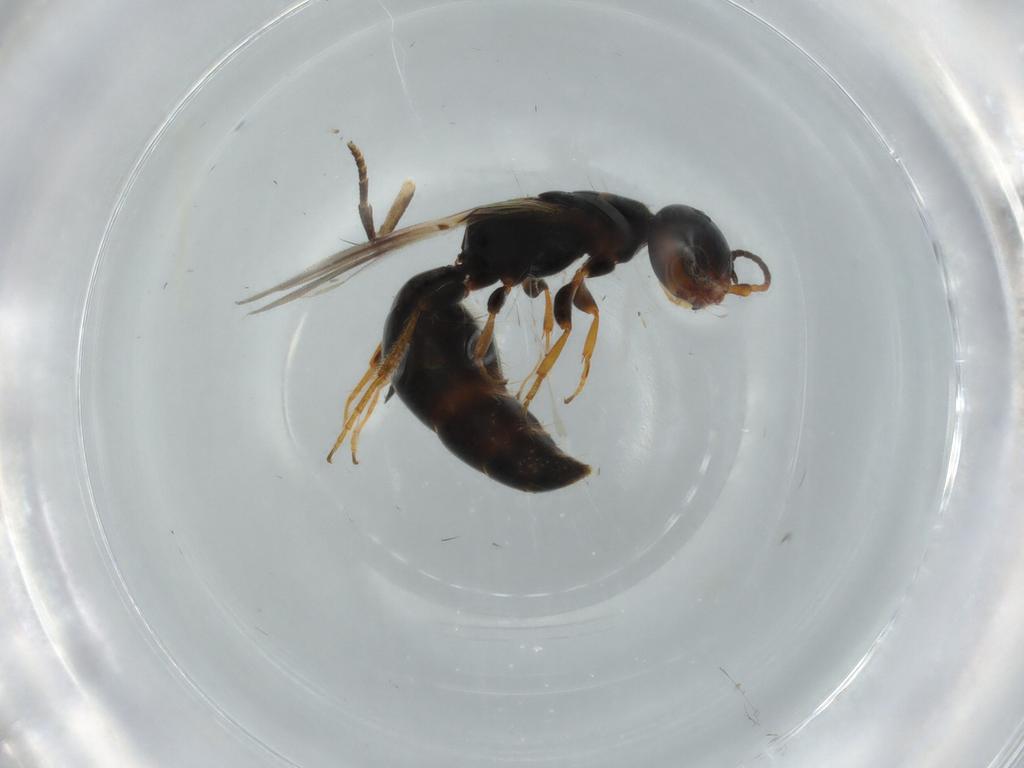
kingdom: Animalia
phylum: Arthropoda
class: Insecta
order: Hymenoptera
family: Bethylidae
